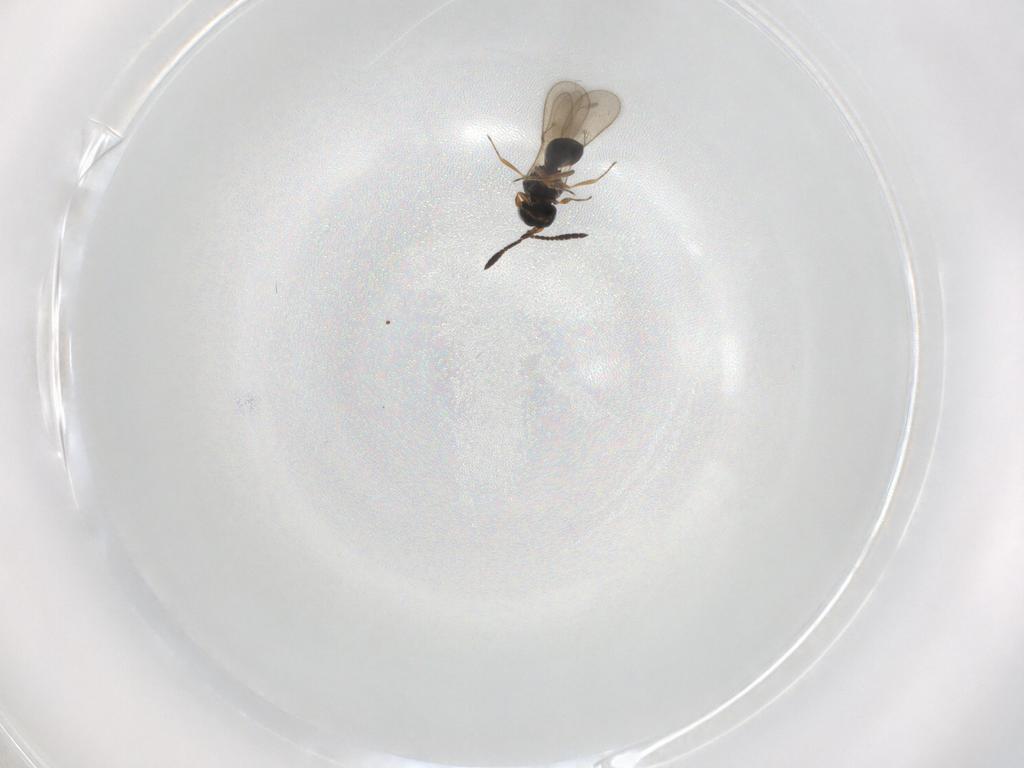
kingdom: Animalia
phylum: Arthropoda
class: Insecta
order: Hymenoptera
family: Scelionidae
